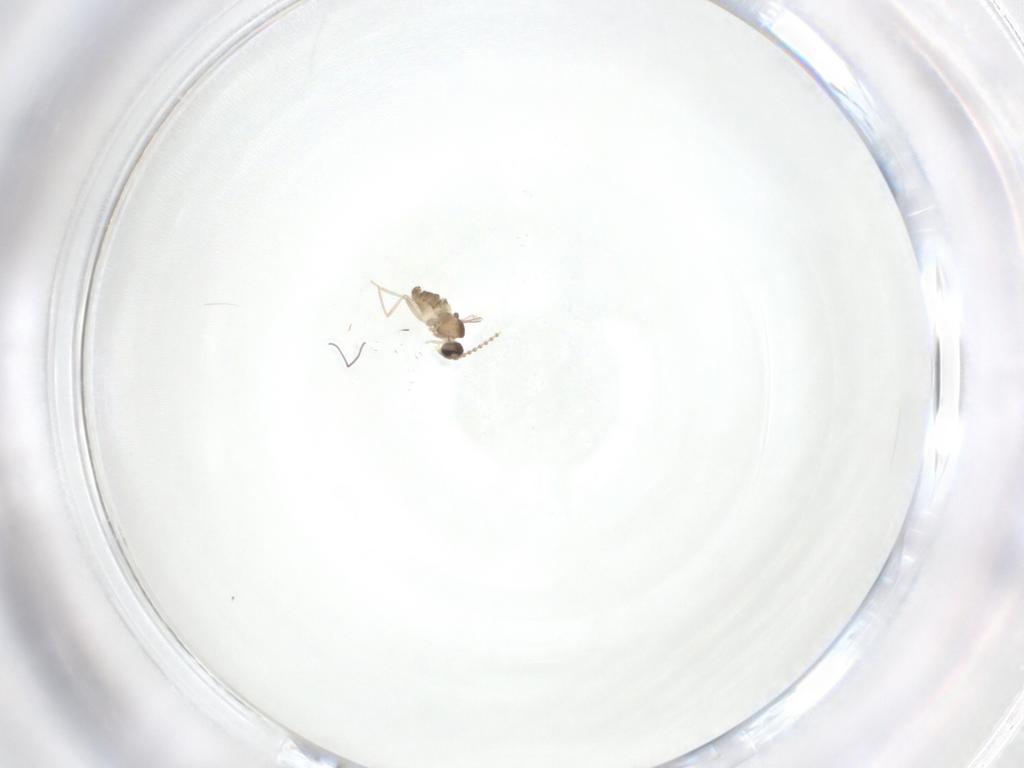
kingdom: Animalia
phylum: Arthropoda
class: Insecta
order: Diptera
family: Cecidomyiidae
